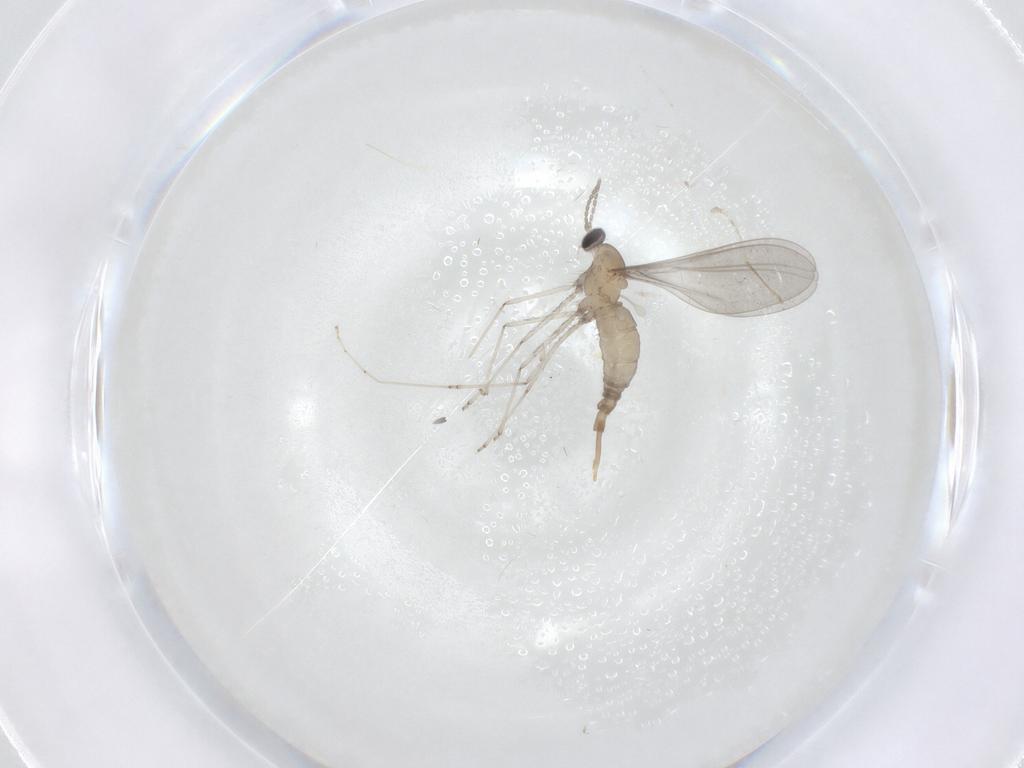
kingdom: Animalia
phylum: Arthropoda
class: Insecta
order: Diptera
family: Cecidomyiidae
